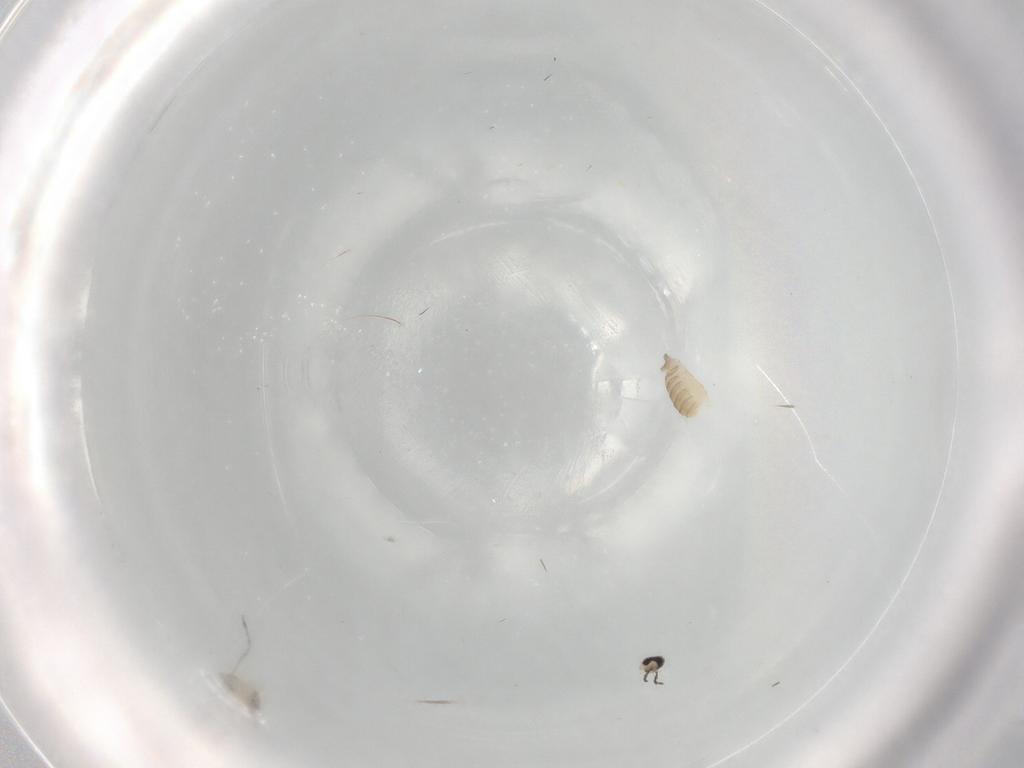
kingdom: Animalia
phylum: Arthropoda
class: Insecta
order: Diptera
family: Cecidomyiidae
